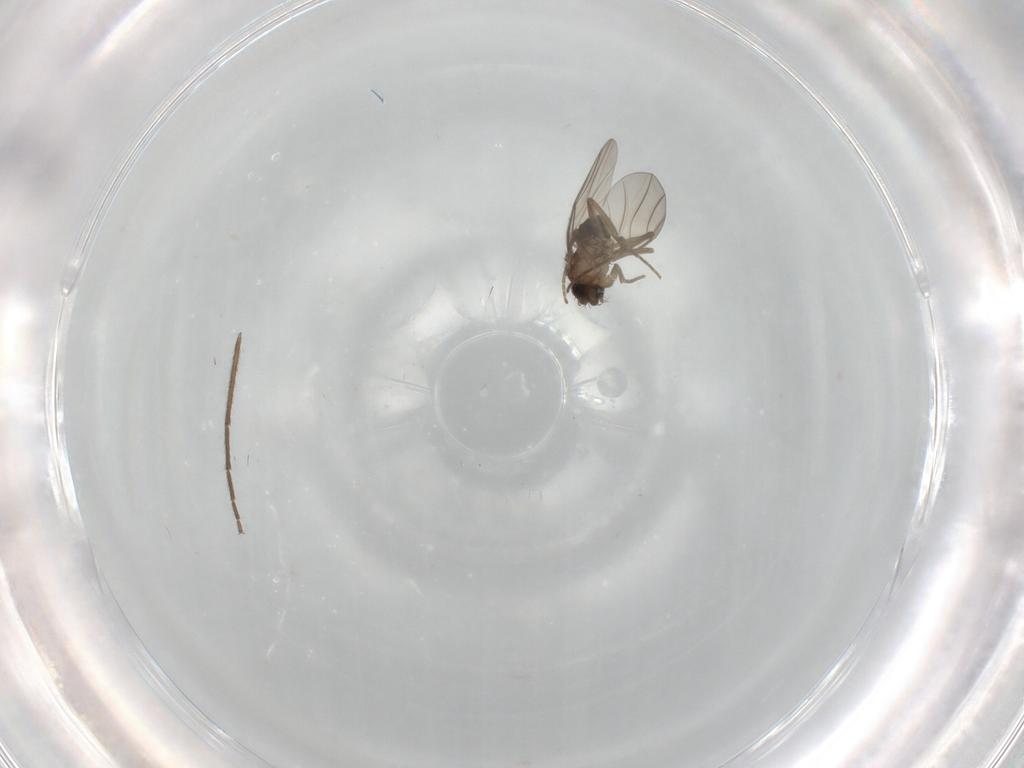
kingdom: Animalia
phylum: Arthropoda
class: Insecta
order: Diptera
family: Phoridae
